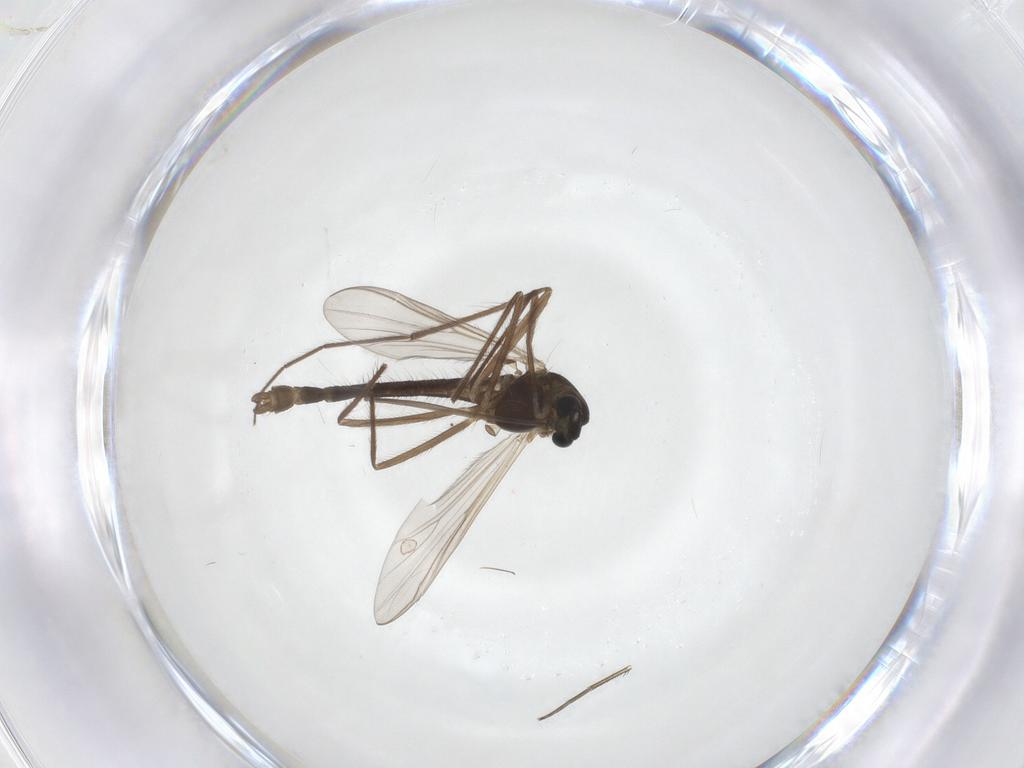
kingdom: Animalia
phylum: Arthropoda
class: Insecta
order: Diptera
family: Chironomidae
